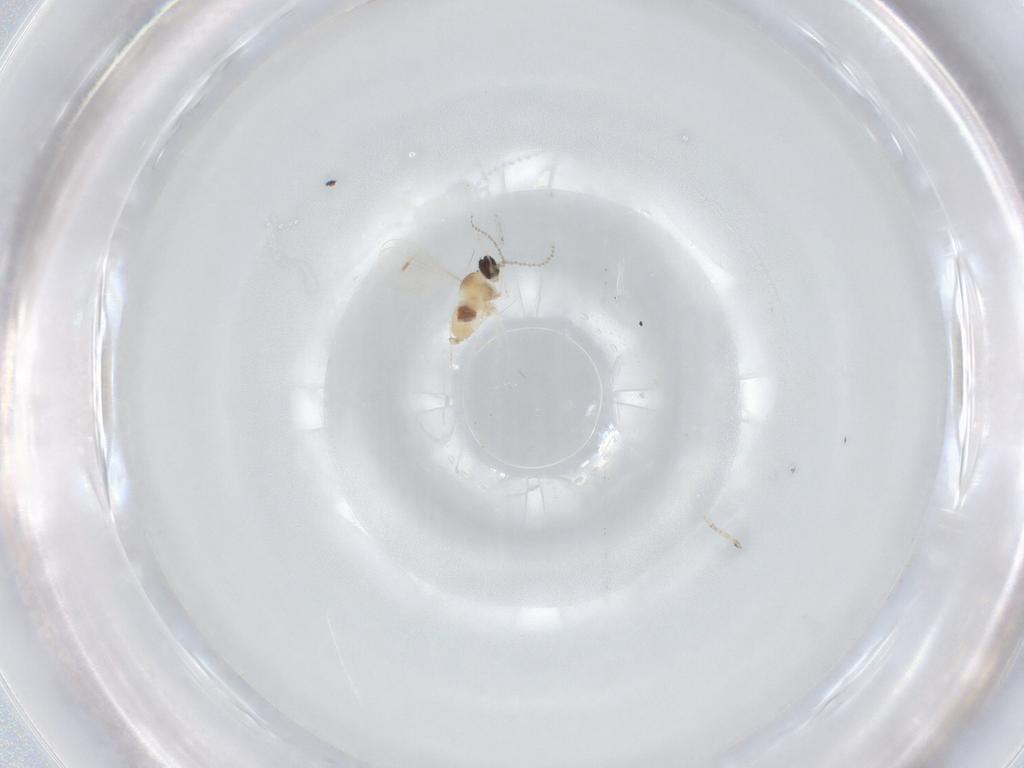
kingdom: Animalia
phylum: Arthropoda
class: Insecta
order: Diptera
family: Cecidomyiidae
